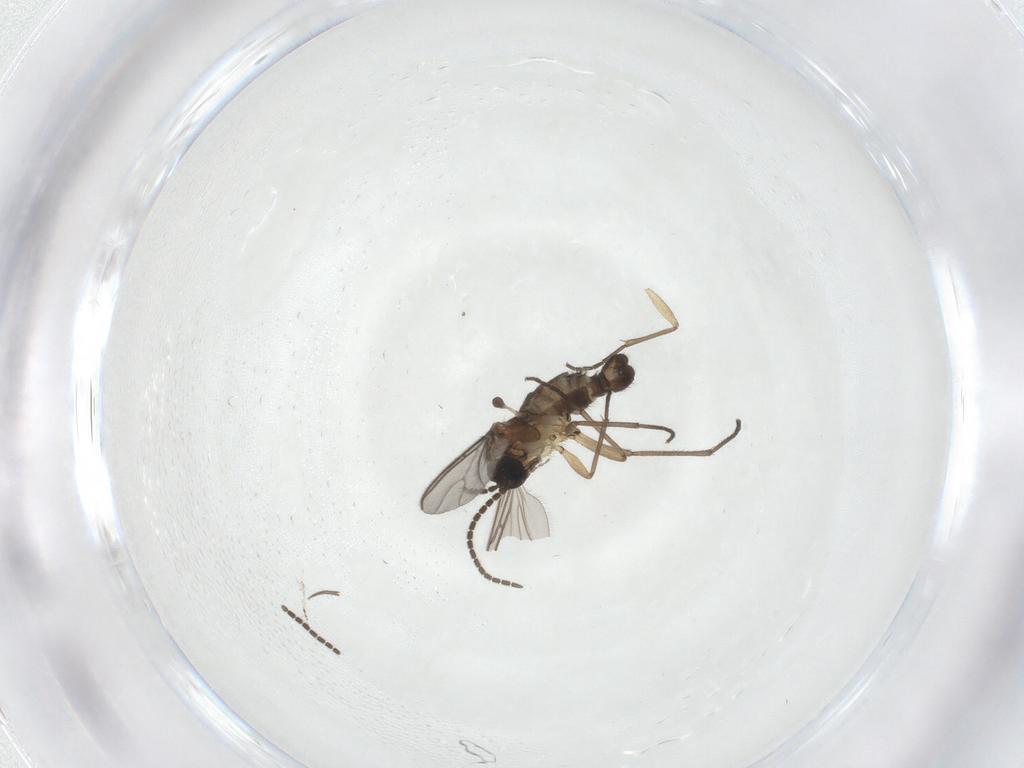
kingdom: Animalia
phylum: Arthropoda
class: Insecta
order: Diptera
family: Sciaridae
